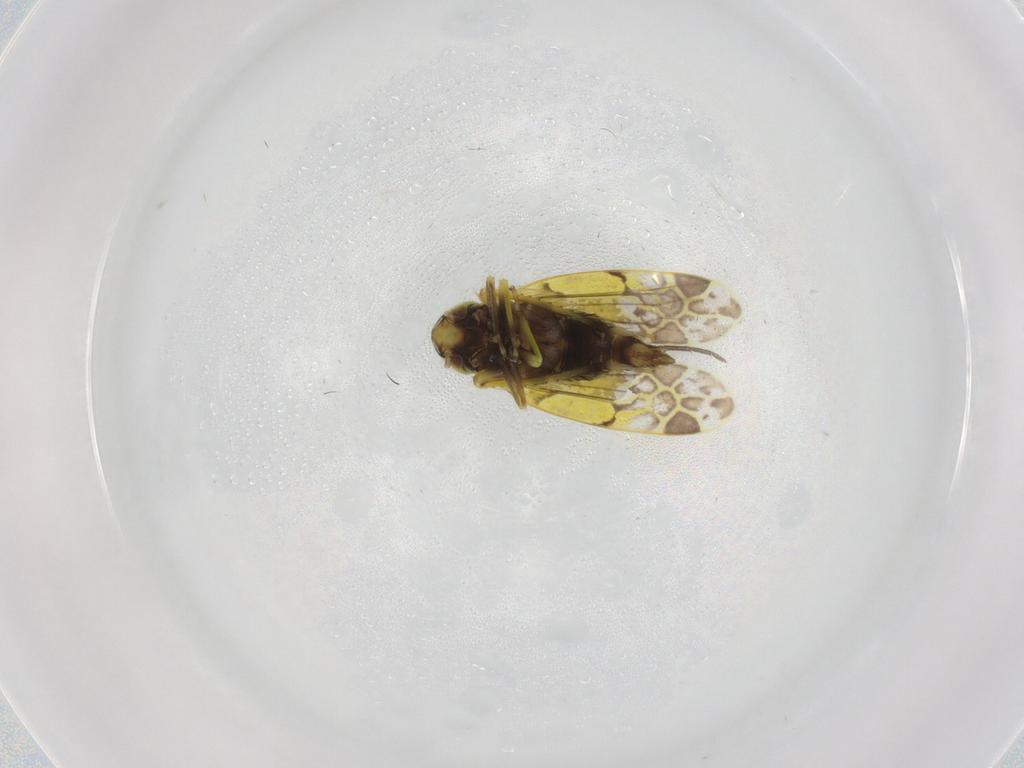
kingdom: Animalia
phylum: Arthropoda
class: Insecta
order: Hemiptera
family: Cicadellidae
